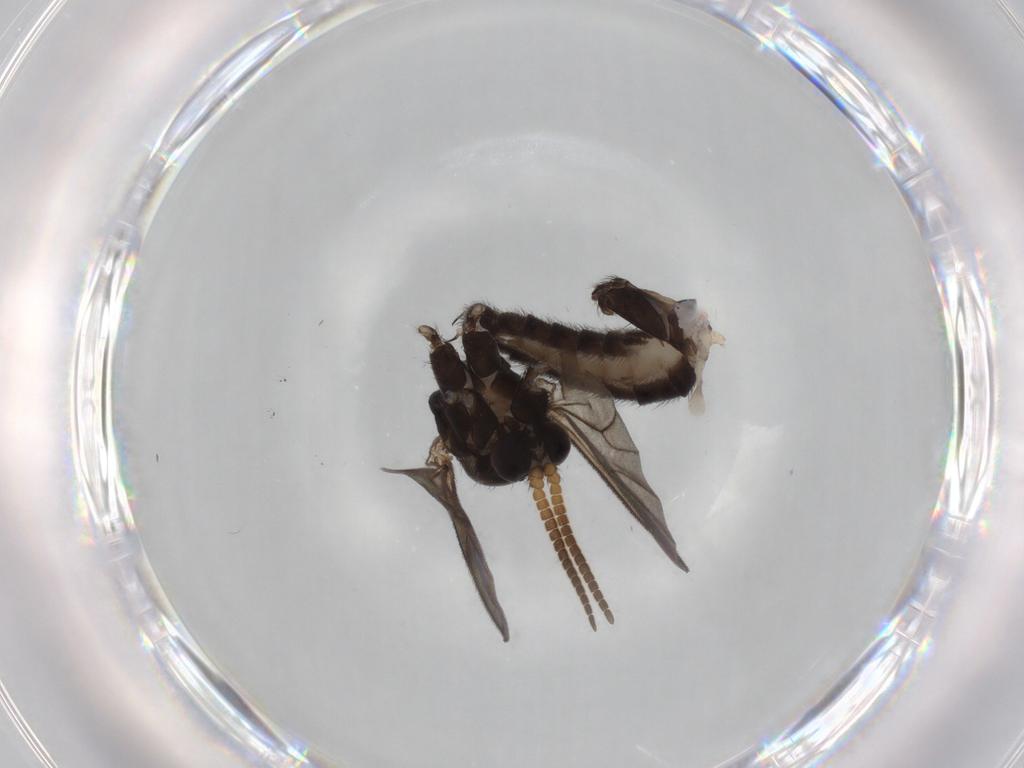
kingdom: Animalia
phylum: Arthropoda
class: Insecta
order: Diptera
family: Mycetophilidae
